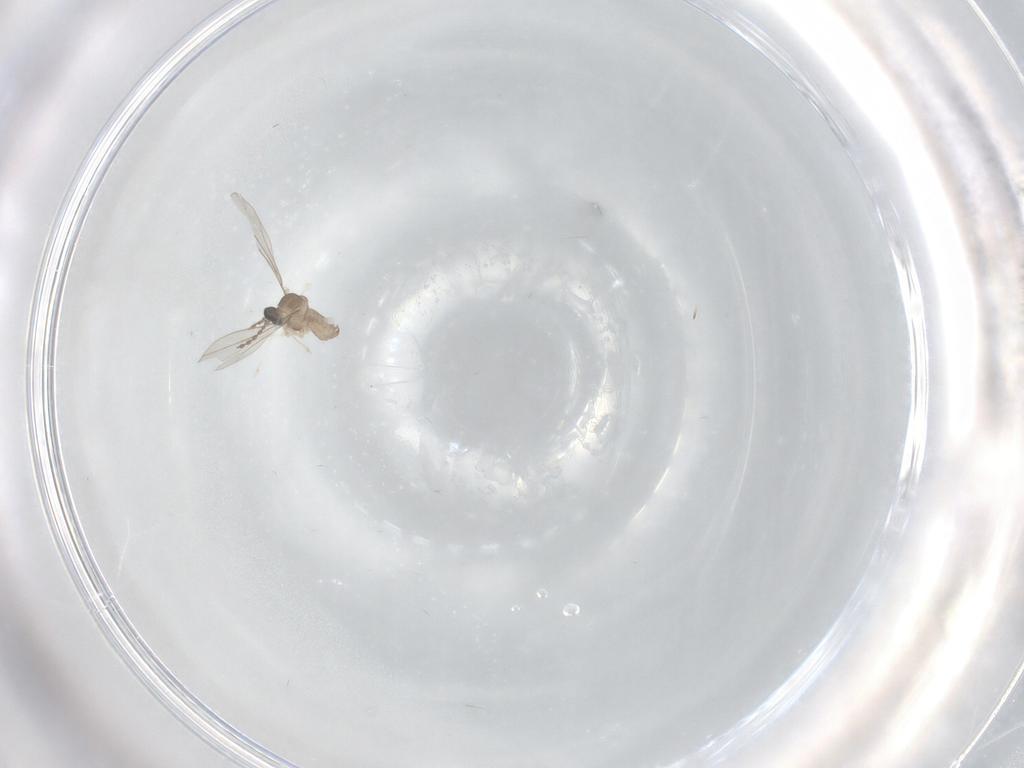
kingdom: Animalia
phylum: Arthropoda
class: Insecta
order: Diptera
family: Cecidomyiidae
